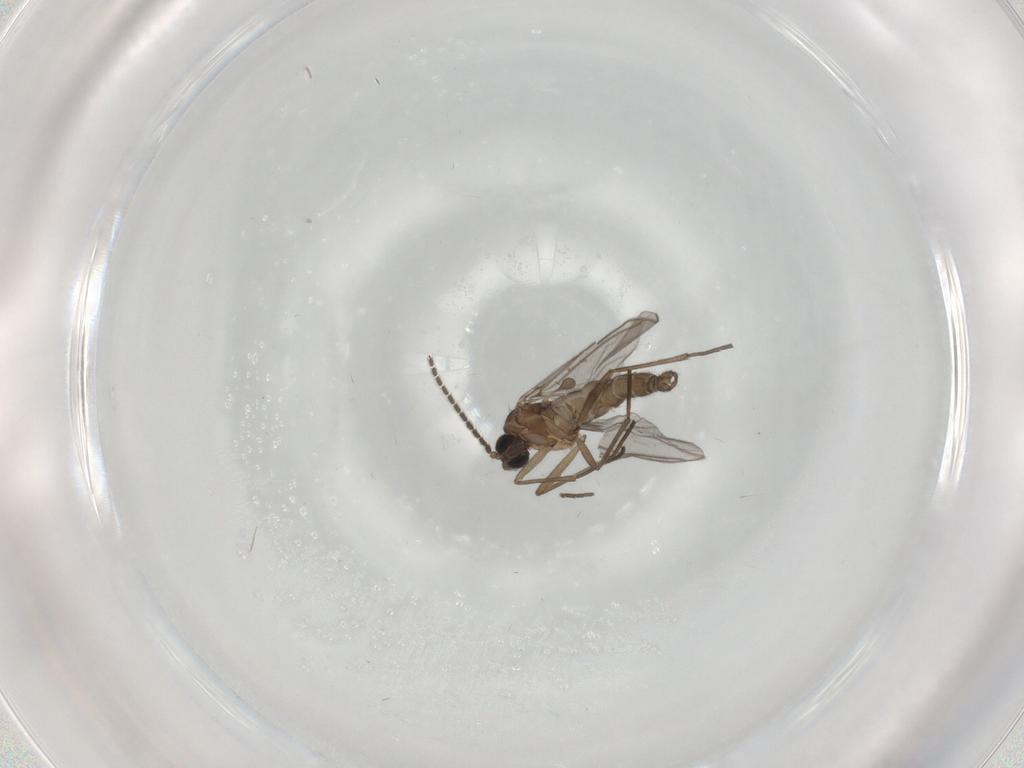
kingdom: Animalia
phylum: Arthropoda
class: Insecta
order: Diptera
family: Sciaridae
